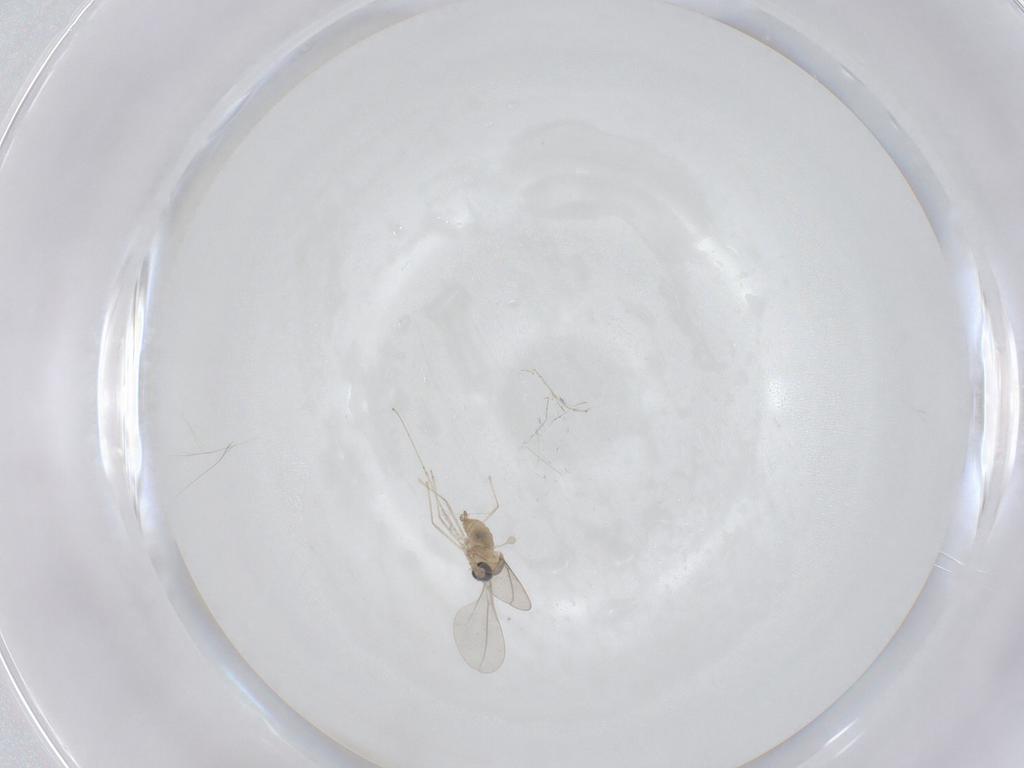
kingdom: Animalia
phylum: Arthropoda
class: Insecta
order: Diptera
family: Cecidomyiidae
